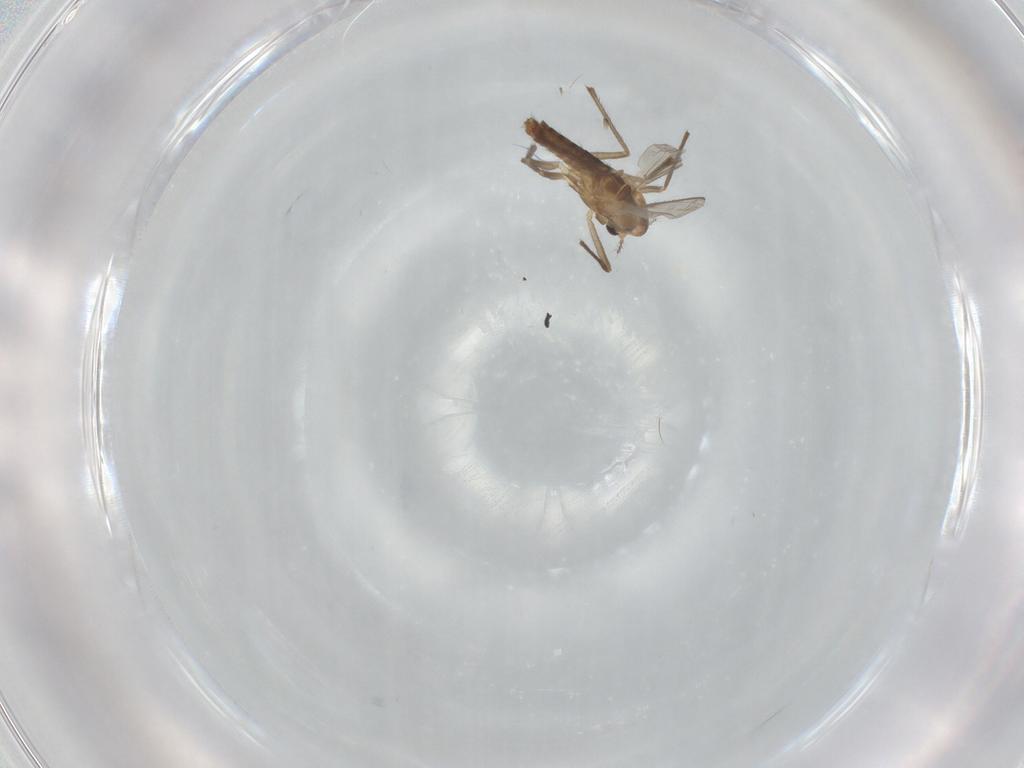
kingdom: Animalia
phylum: Arthropoda
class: Insecta
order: Diptera
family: Chironomidae
